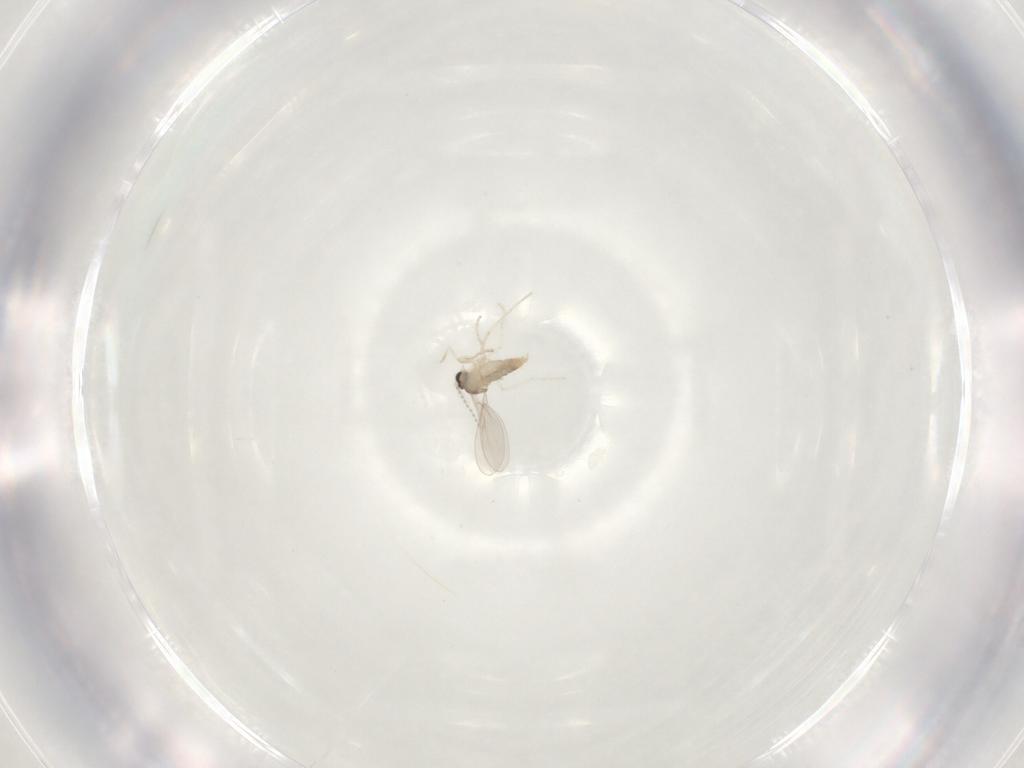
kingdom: Animalia
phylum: Arthropoda
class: Insecta
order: Diptera
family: Cecidomyiidae
